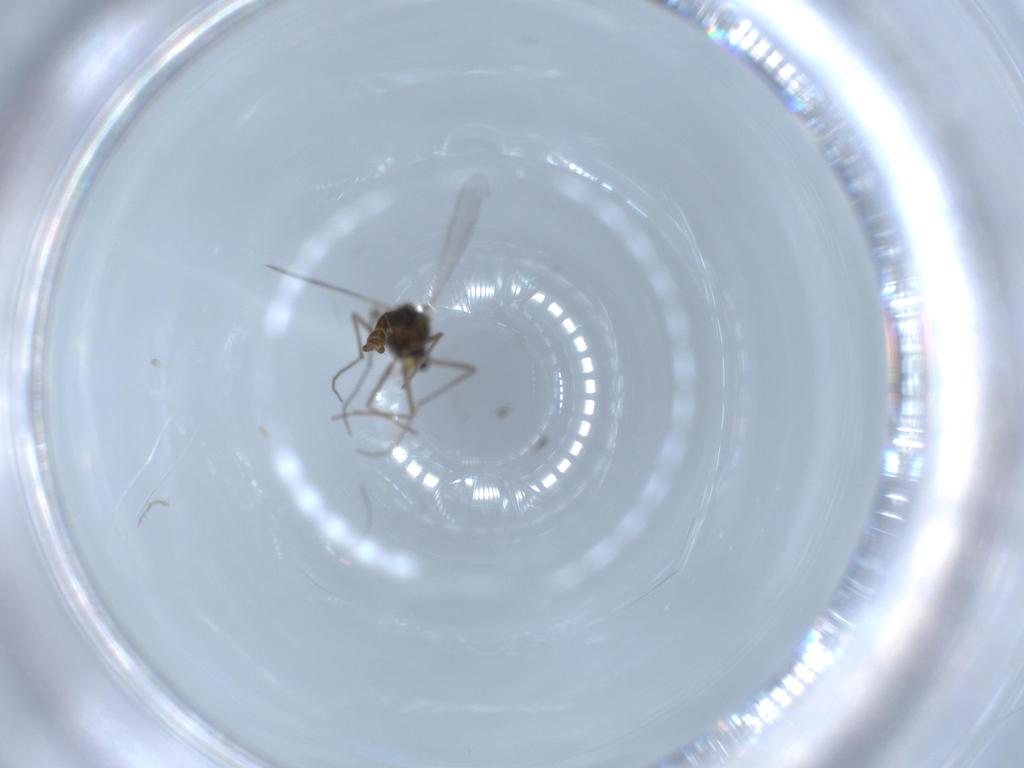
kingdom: Animalia
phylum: Arthropoda
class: Insecta
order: Diptera
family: Chironomidae
